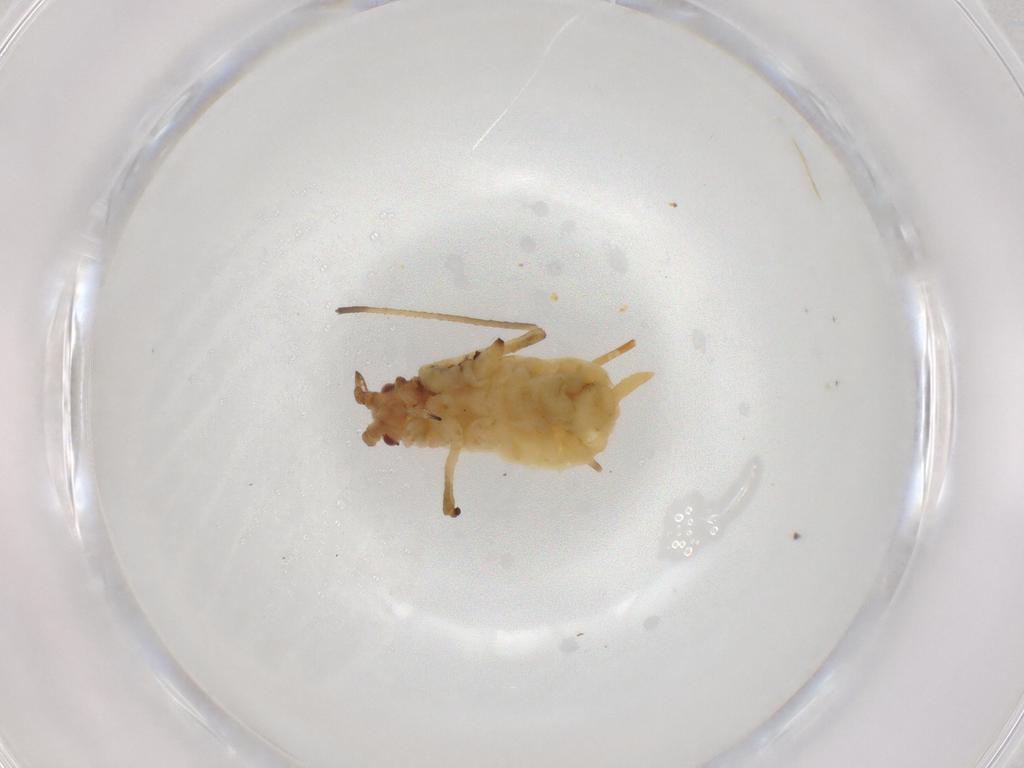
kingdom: Animalia
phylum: Arthropoda
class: Insecta
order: Hemiptera
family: Aphididae
